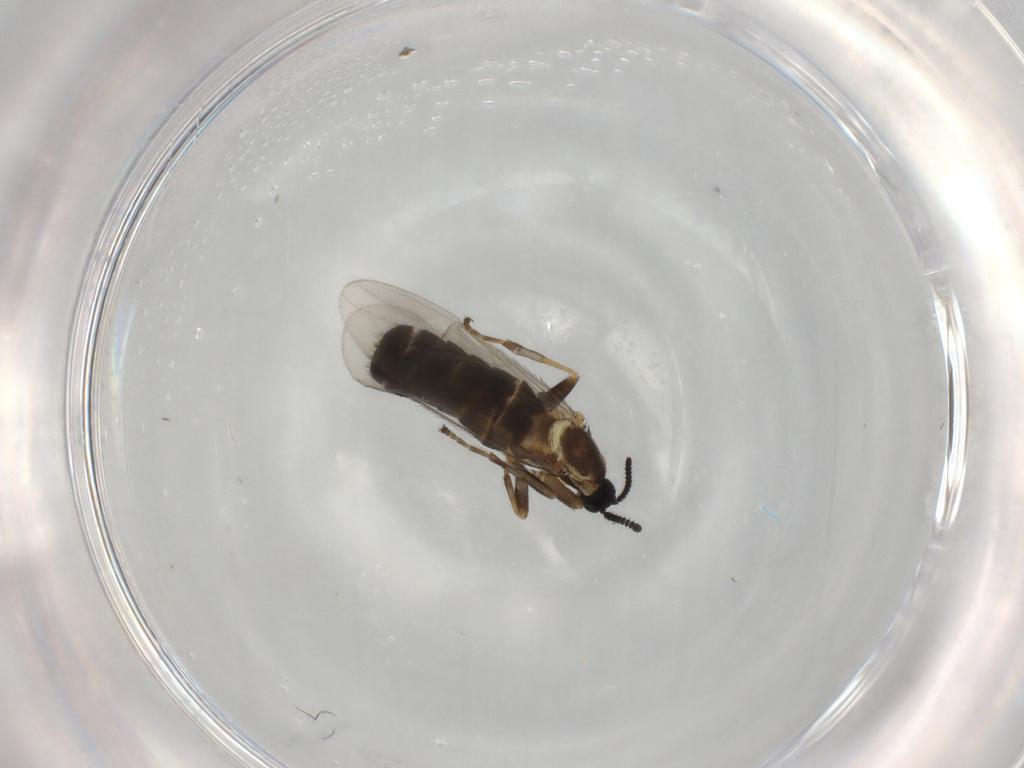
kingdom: Animalia
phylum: Arthropoda
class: Insecta
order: Diptera
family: Scatopsidae
